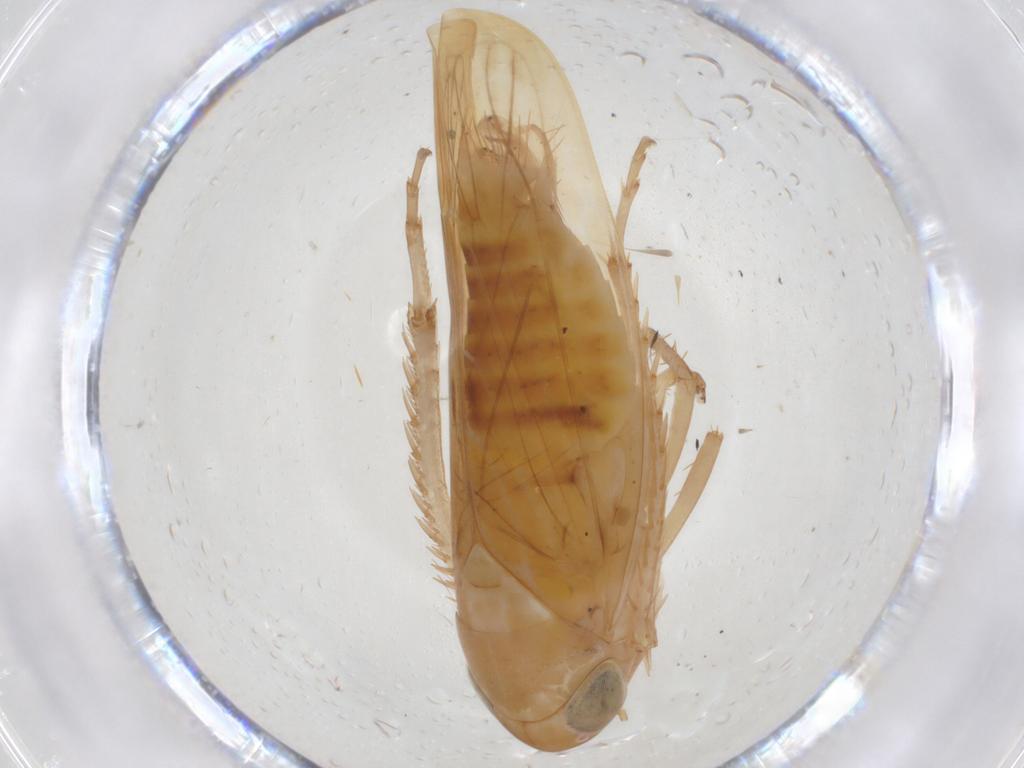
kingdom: Animalia
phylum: Arthropoda
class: Insecta
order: Hemiptera
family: Cicadellidae
